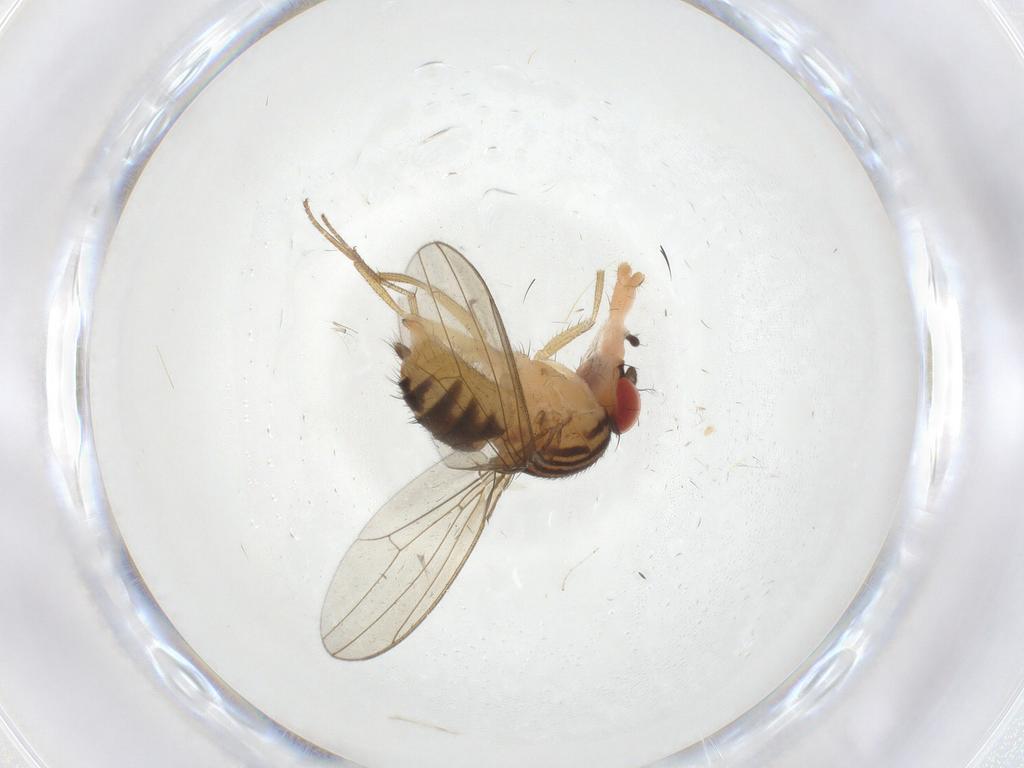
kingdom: Animalia
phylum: Arthropoda
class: Insecta
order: Diptera
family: Drosophilidae
